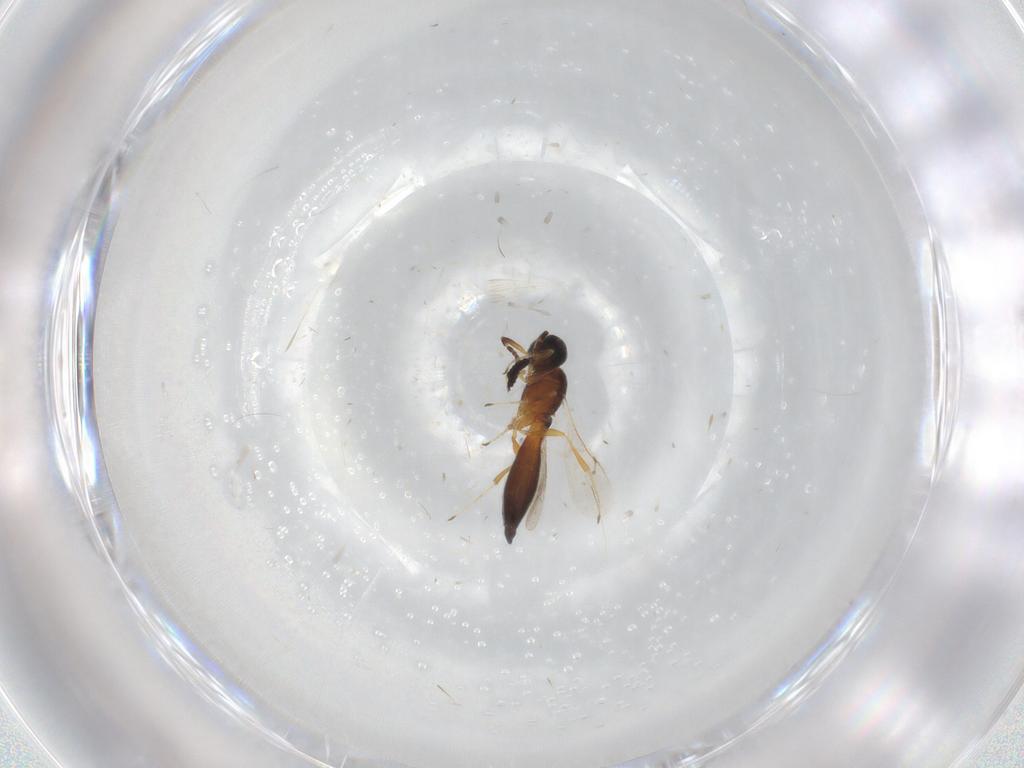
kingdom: Animalia
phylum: Arthropoda
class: Insecta
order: Hymenoptera
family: Scelionidae
